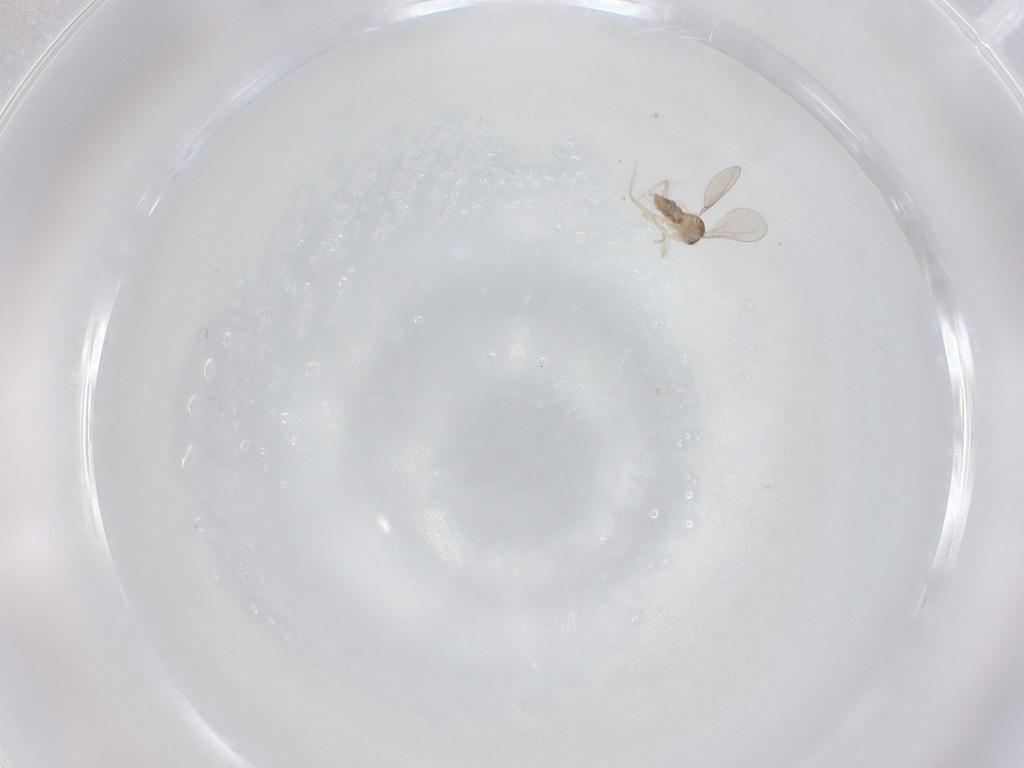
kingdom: Animalia
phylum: Arthropoda
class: Insecta
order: Diptera
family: Cecidomyiidae
